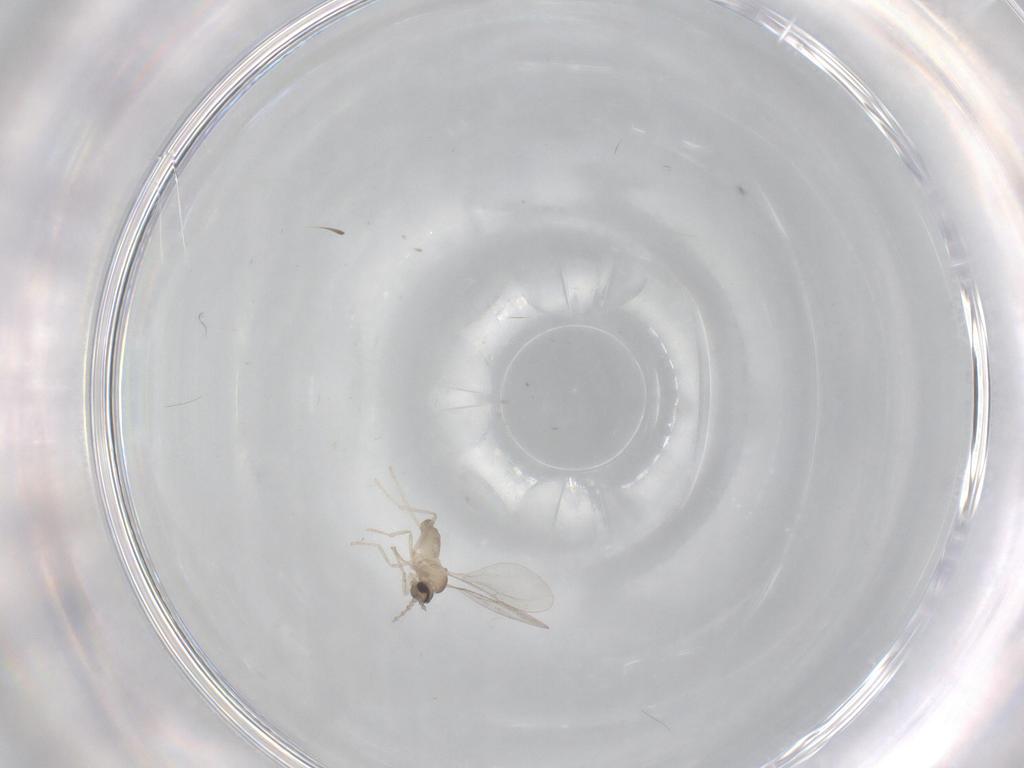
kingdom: Animalia
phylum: Arthropoda
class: Insecta
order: Diptera
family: Cecidomyiidae
